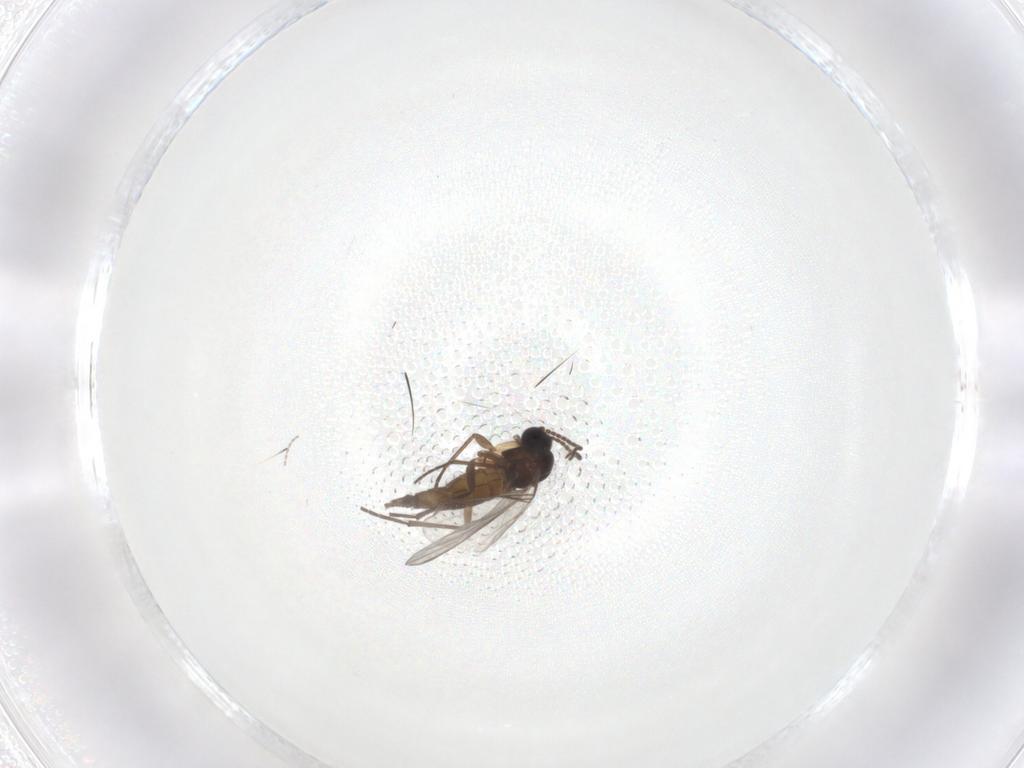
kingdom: Animalia
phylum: Arthropoda
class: Insecta
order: Diptera
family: Sciaridae
